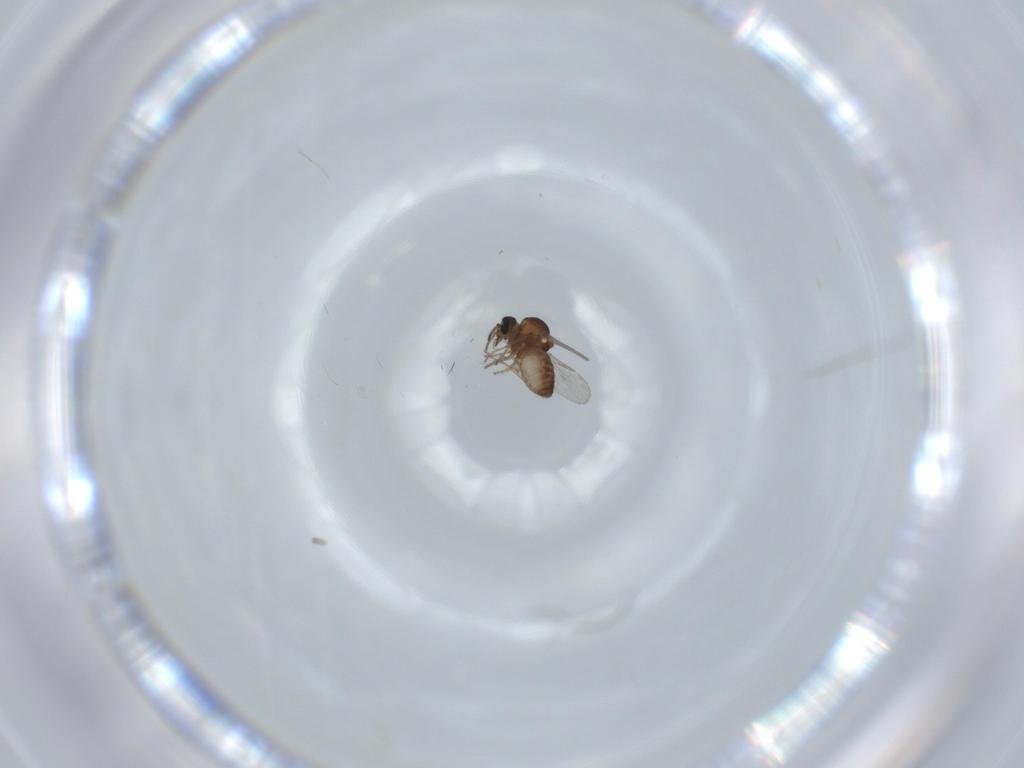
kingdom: Animalia
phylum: Arthropoda
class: Insecta
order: Diptera
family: Ceratopogonidae
